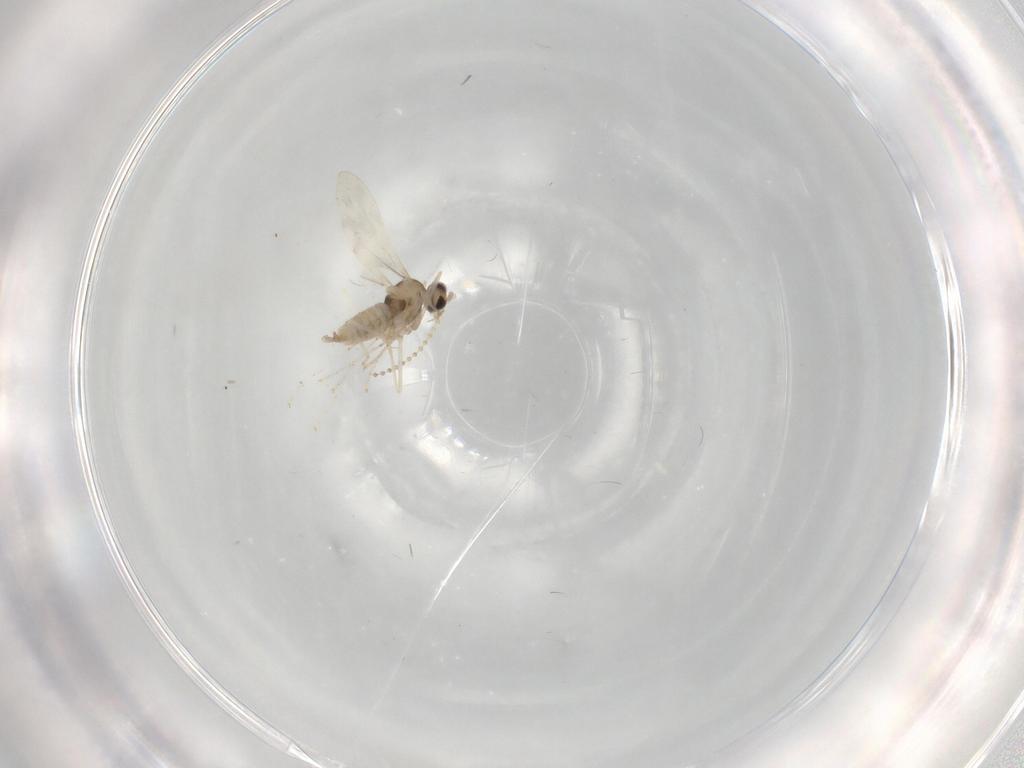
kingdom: Animalia
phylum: Arthropoda
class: Insecta
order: Diptera
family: Cecidomyiidae
